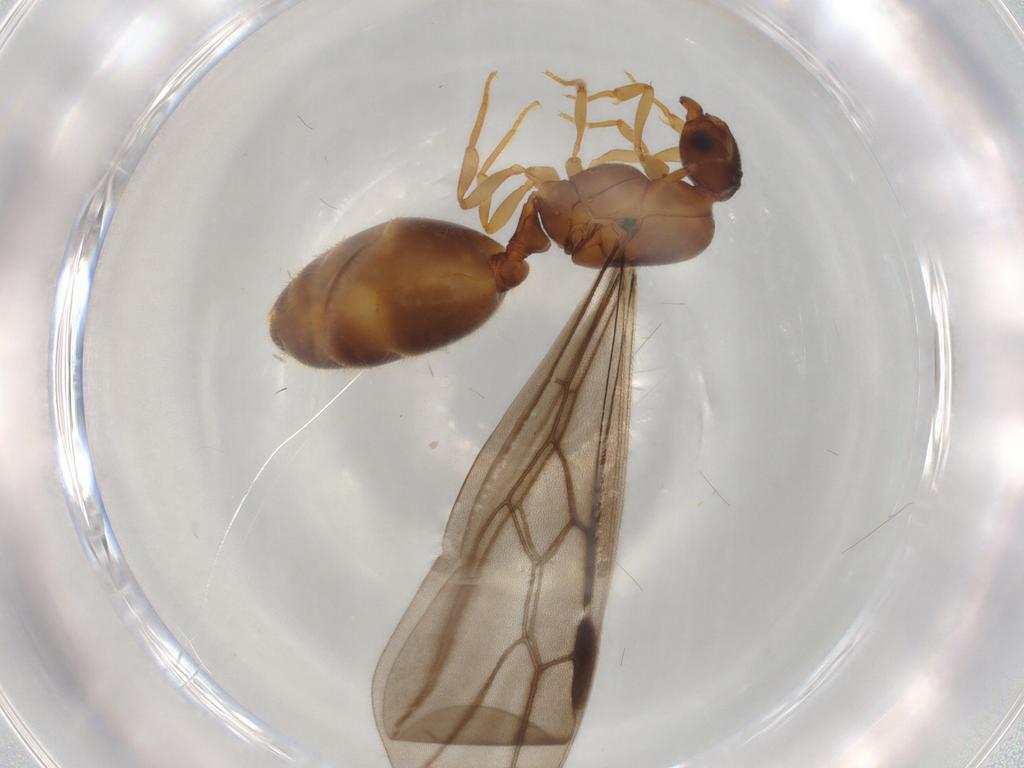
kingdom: Animalia
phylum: Arthropoda
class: Insecta
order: Hymenoptera
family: Formicidae
